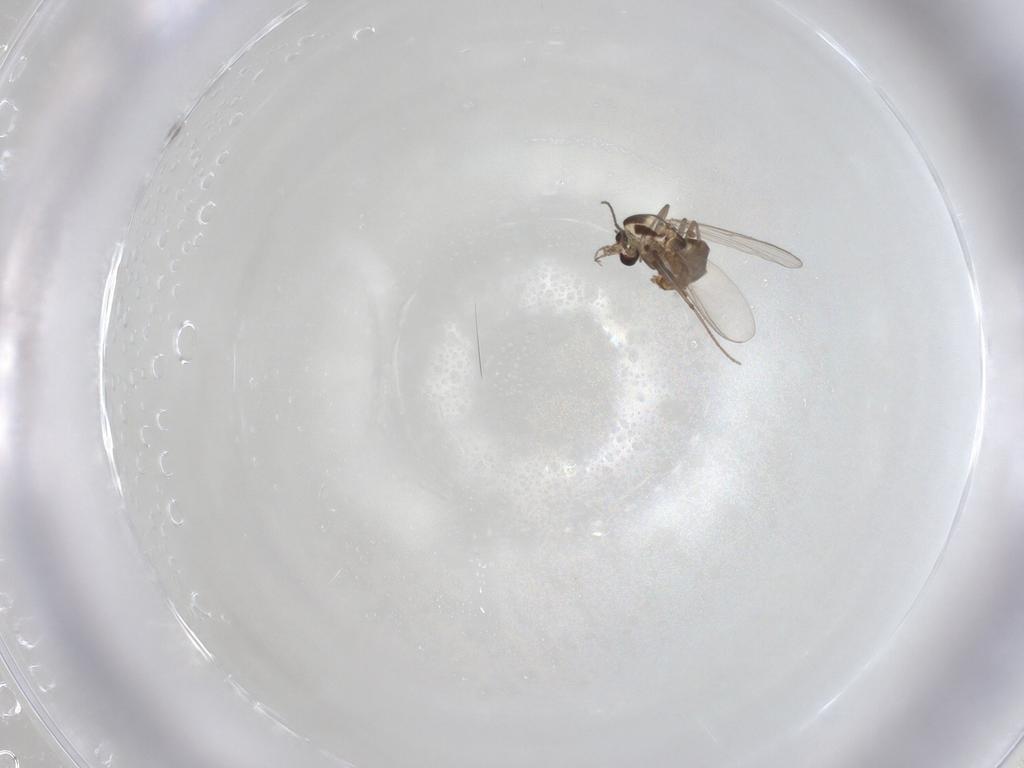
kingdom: Animalia
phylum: Arthropoda
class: Insecta
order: Diptera
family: Chironomidae
